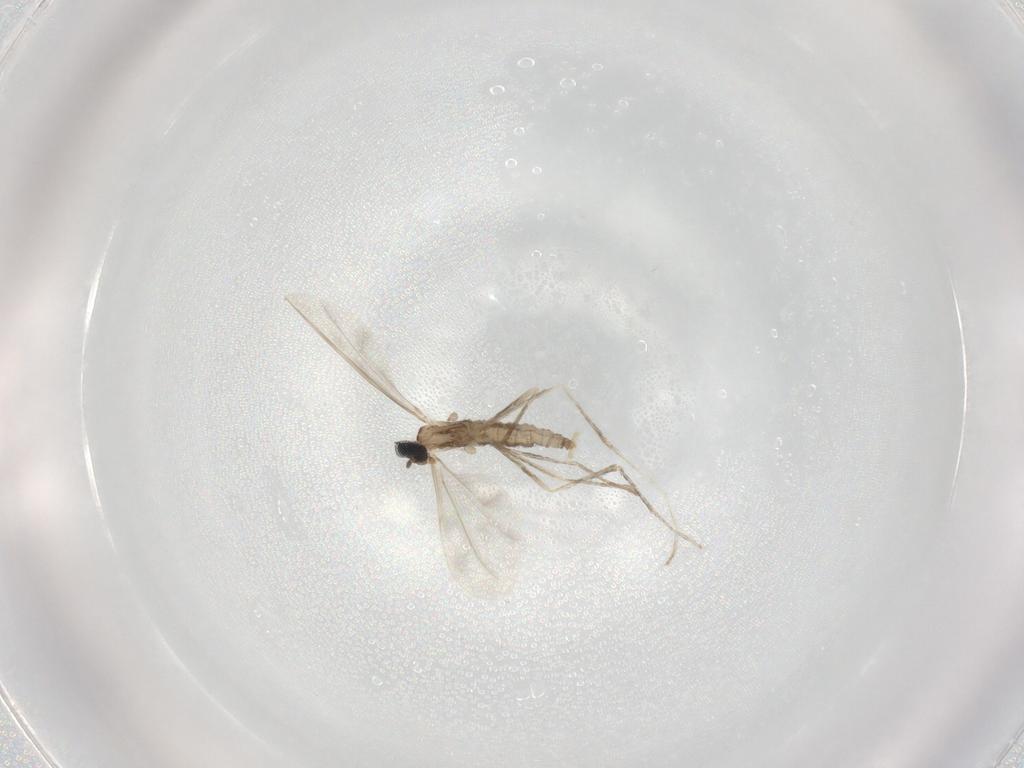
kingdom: Animalia
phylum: Arthropoda
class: Insecta
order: Diptera
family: Cecidomyiidae
